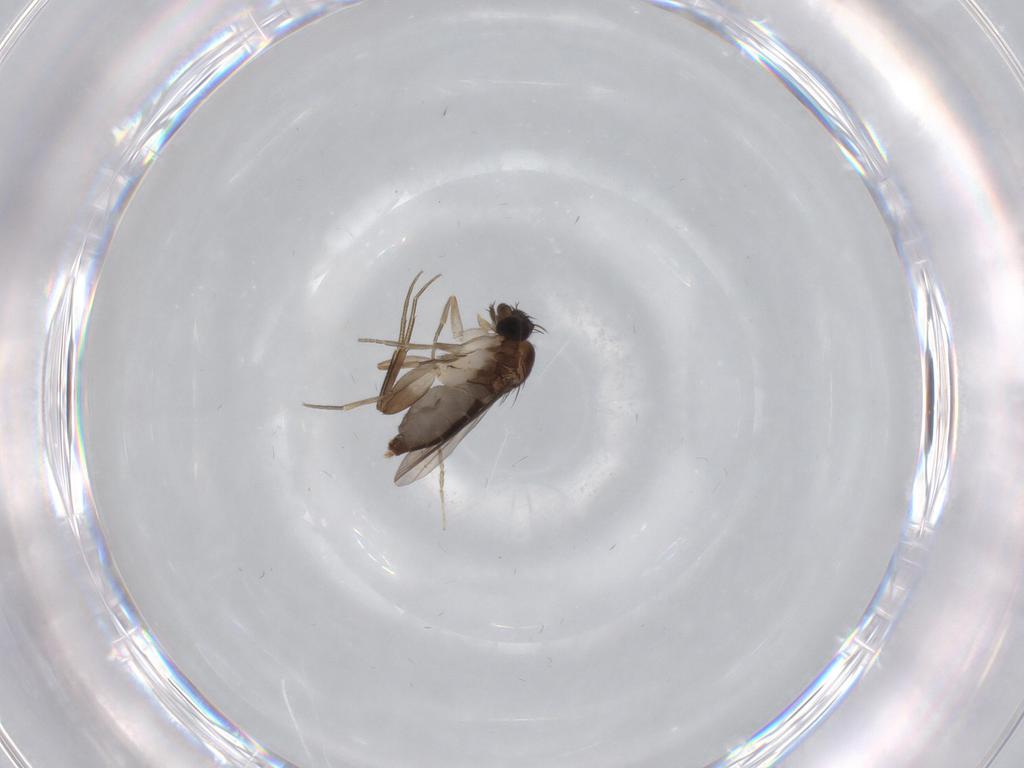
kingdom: Animalia
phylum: Arthropoda
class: Insecta
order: Diptera
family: Phoridae
